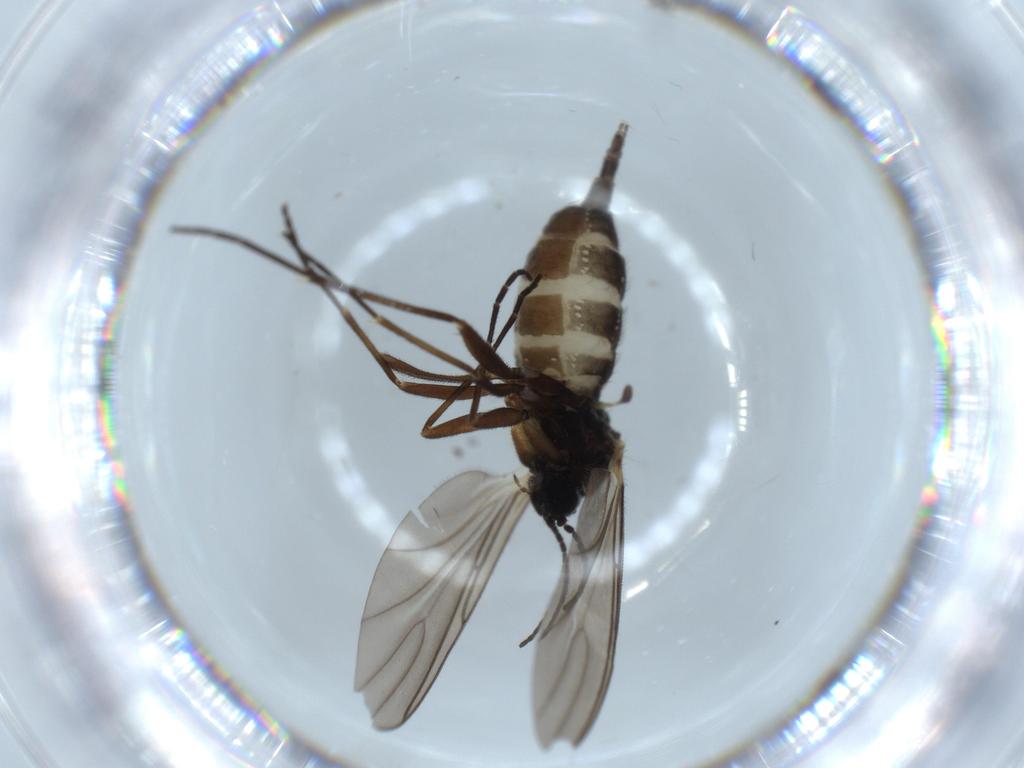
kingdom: Animalia
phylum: Arthropoda
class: Insecta
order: Diptera
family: Sciaridae
